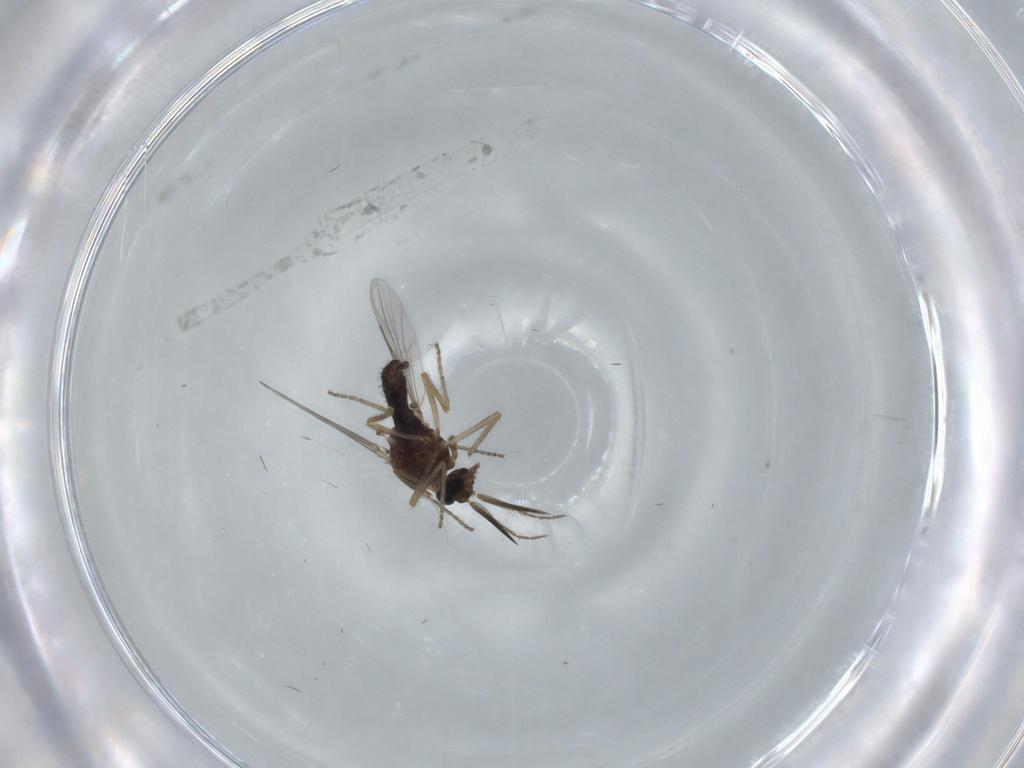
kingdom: Animalia
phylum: Arthropoda
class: Insecta
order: Diptera
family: Ceratopogonidae
